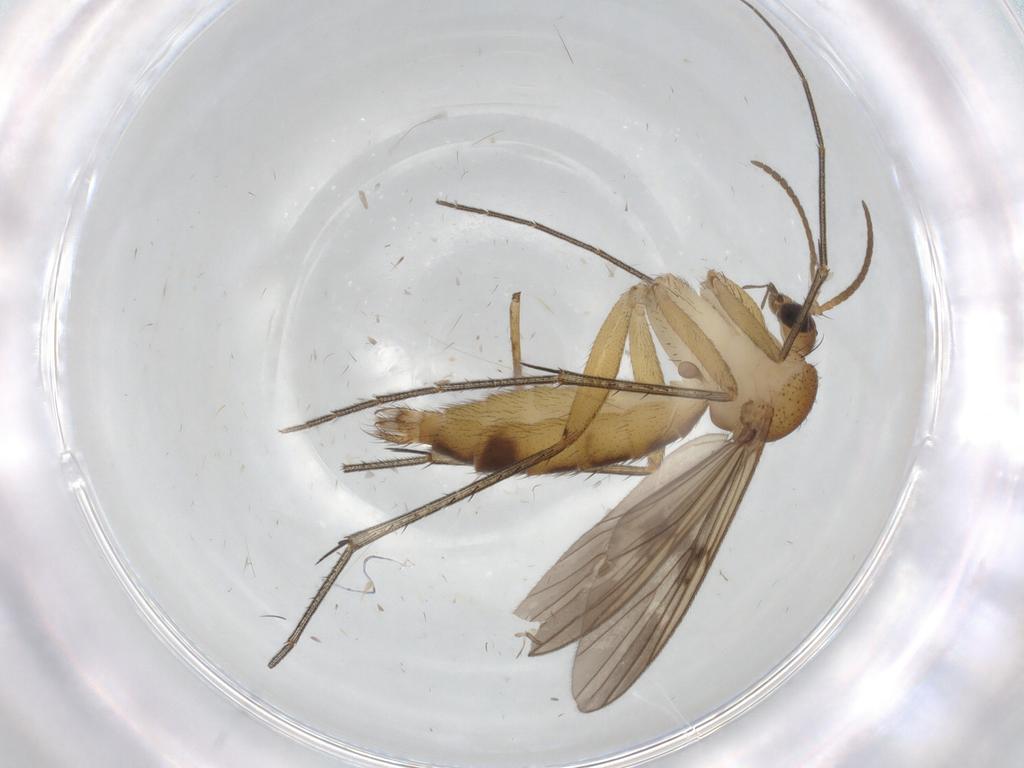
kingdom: Animalia
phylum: Arthropoda
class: Insecta
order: Diptera
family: Mycetophilidae
